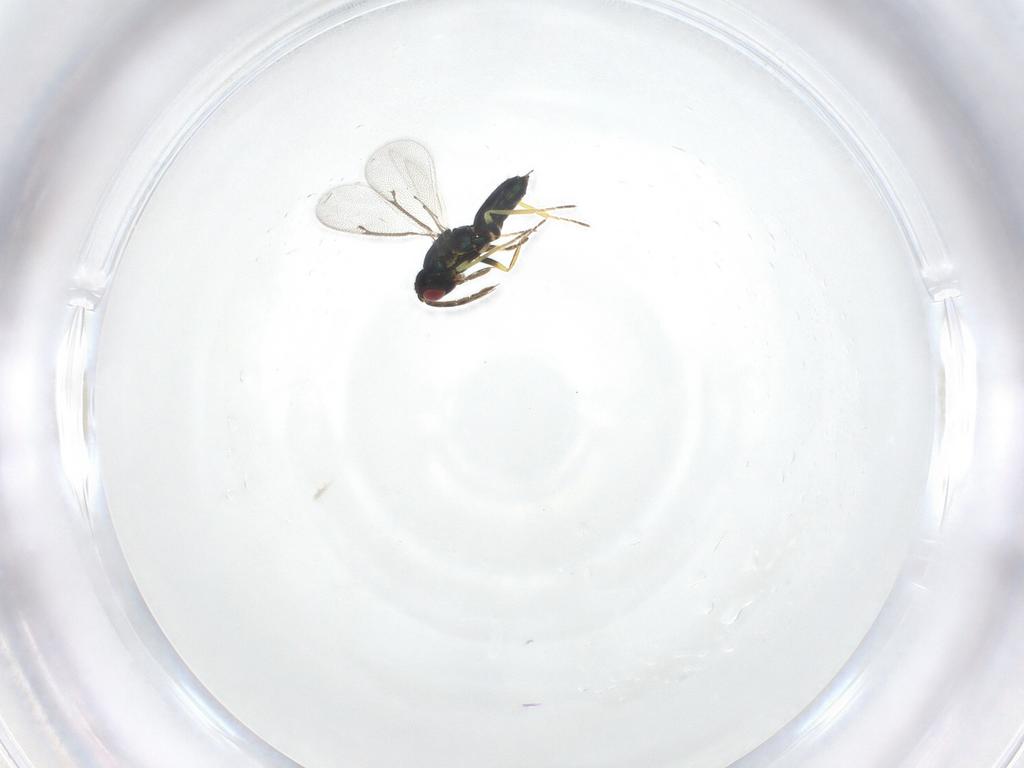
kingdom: Animalia
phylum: Arthropoda
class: Insecta
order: Hymenoptera
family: Eulophidae
